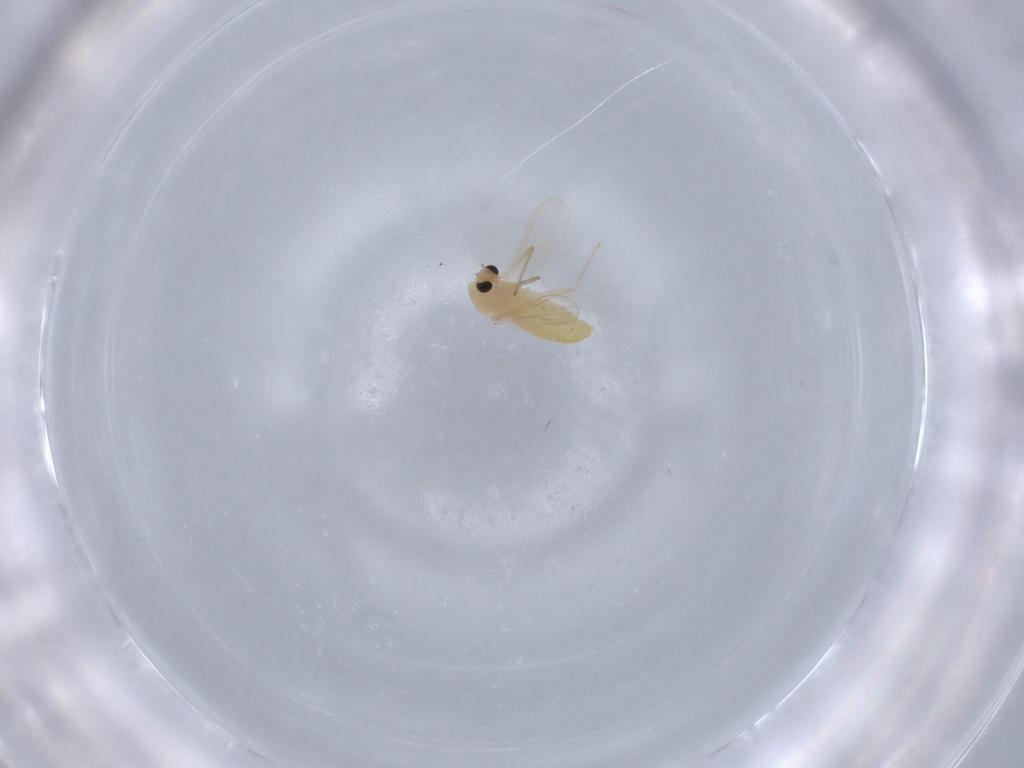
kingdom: Animalia
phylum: Arthropoda
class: Insecta
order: Diptera
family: Chironomidae
